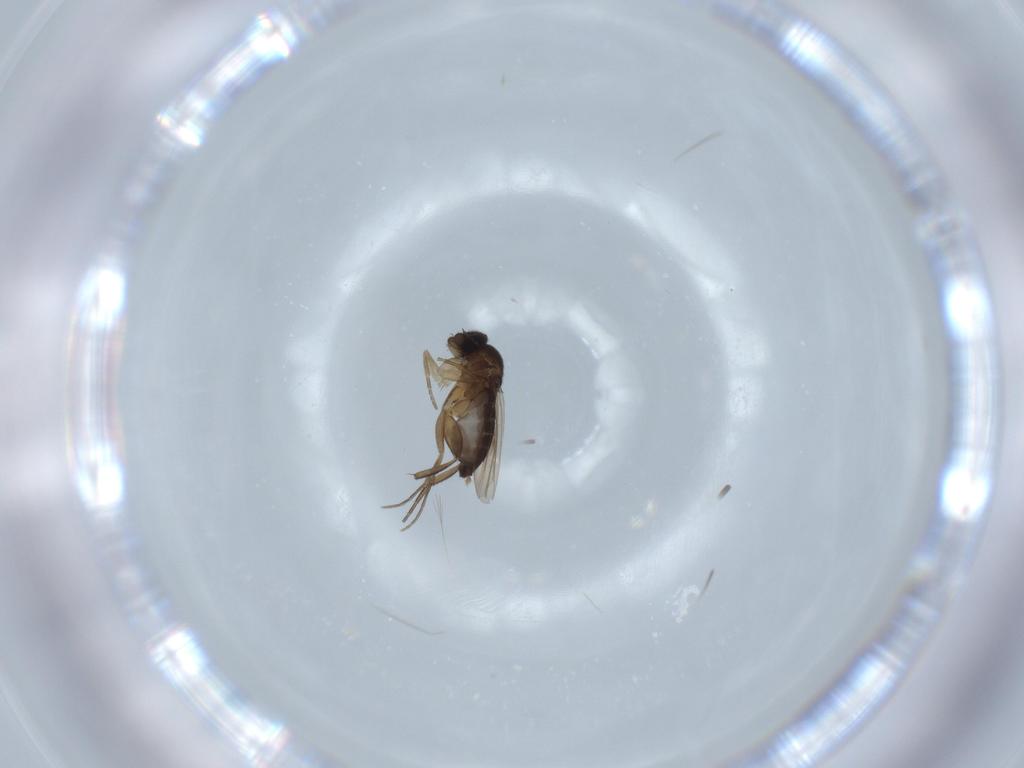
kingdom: Animalia
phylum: Arthropoda
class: Insecta
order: Diptera
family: Phoridae
